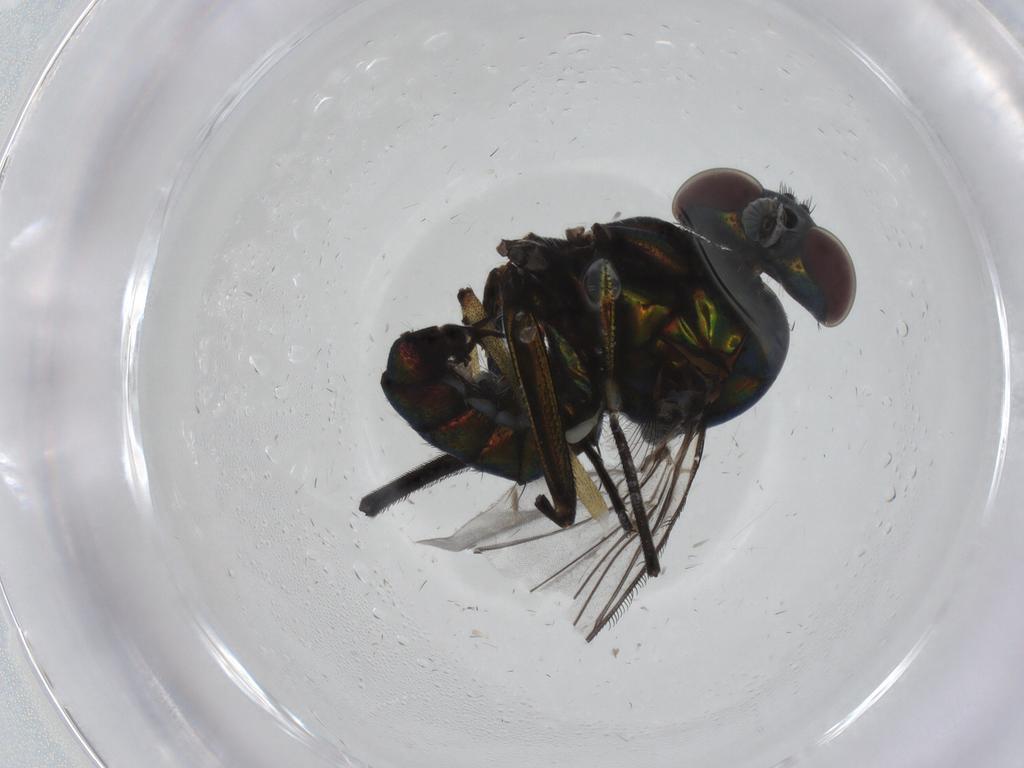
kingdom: Animalia
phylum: Arthropoda
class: Insecta
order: Diptera
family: Dolichopodidae
